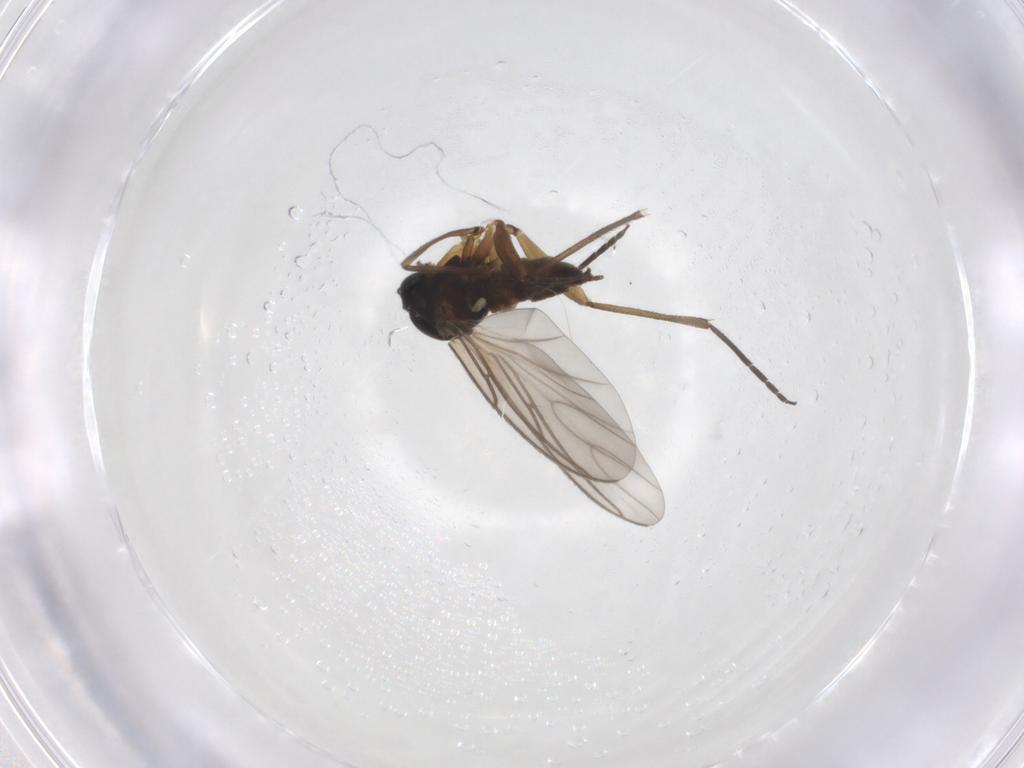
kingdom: Animalia
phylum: Arthropoda
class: Insecta
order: Diptera
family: Sciaridae
